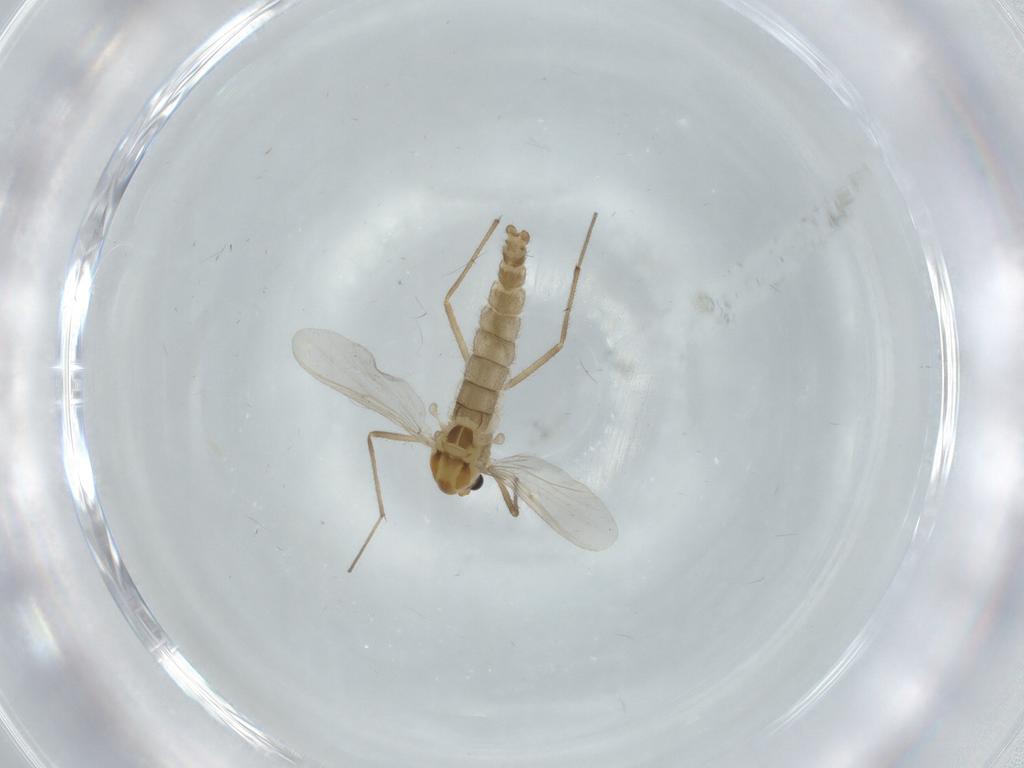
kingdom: Animalia
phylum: Arthropoda
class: Insecta
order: Diptera
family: Chironomidae
